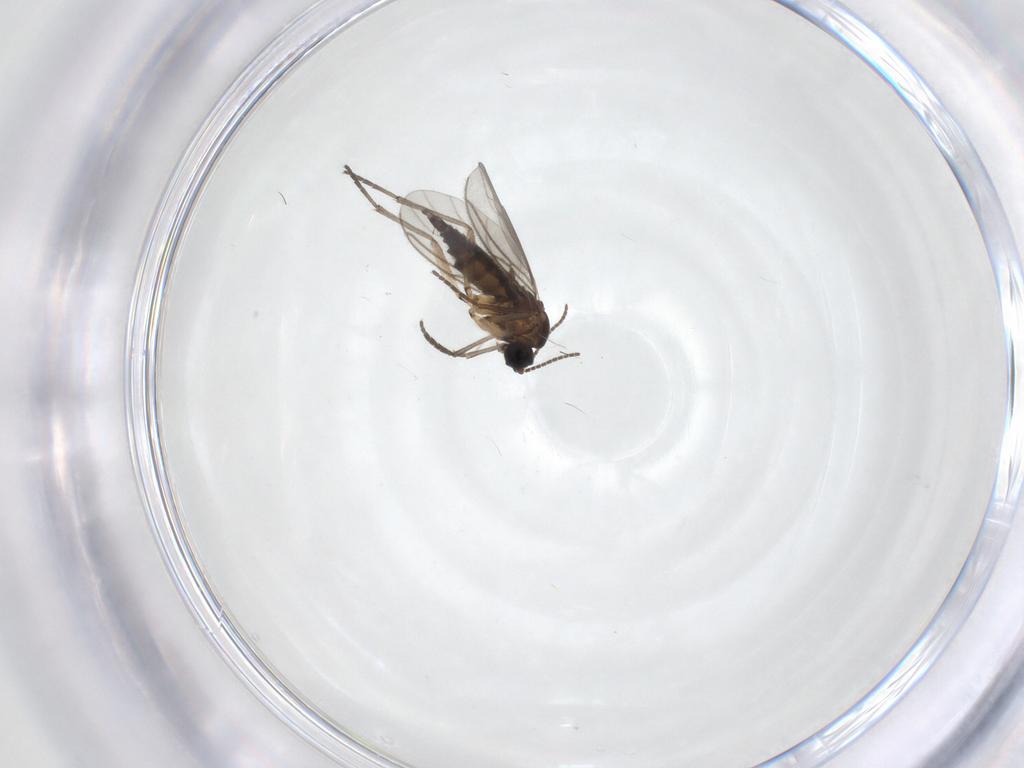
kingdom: Animalia
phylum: Arthropoda
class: Insecta
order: Diptera
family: Sciaridae
